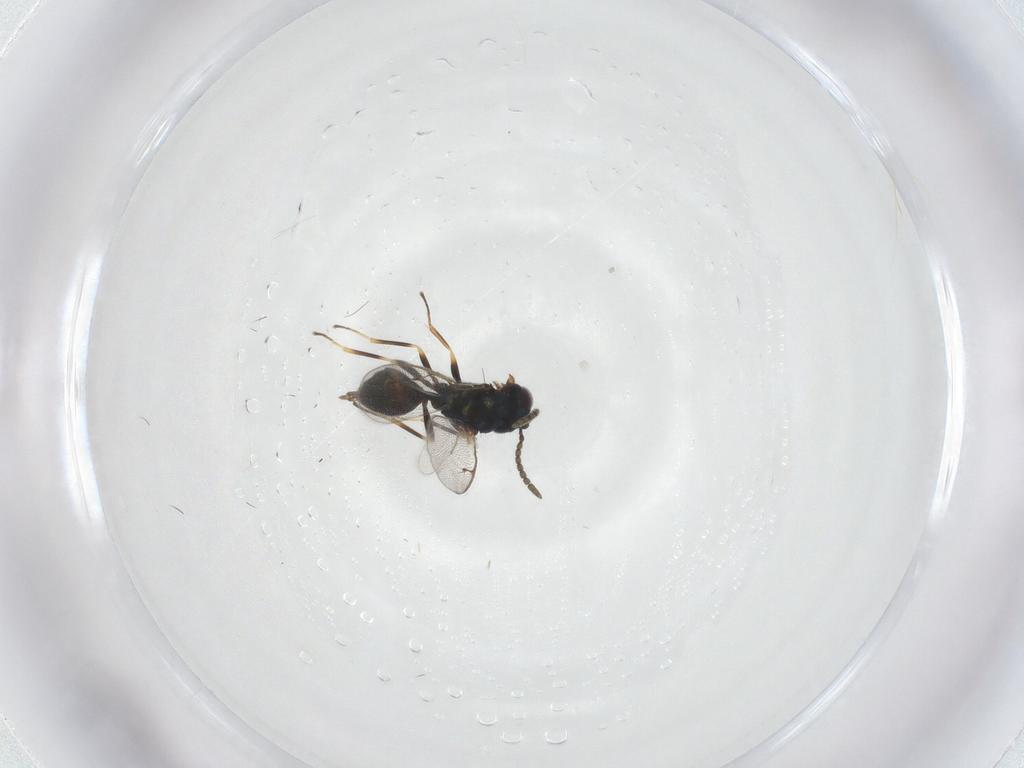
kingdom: Animalia
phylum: Arthropoda
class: Insecta
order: Hymenoptera
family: Pteromalidae
